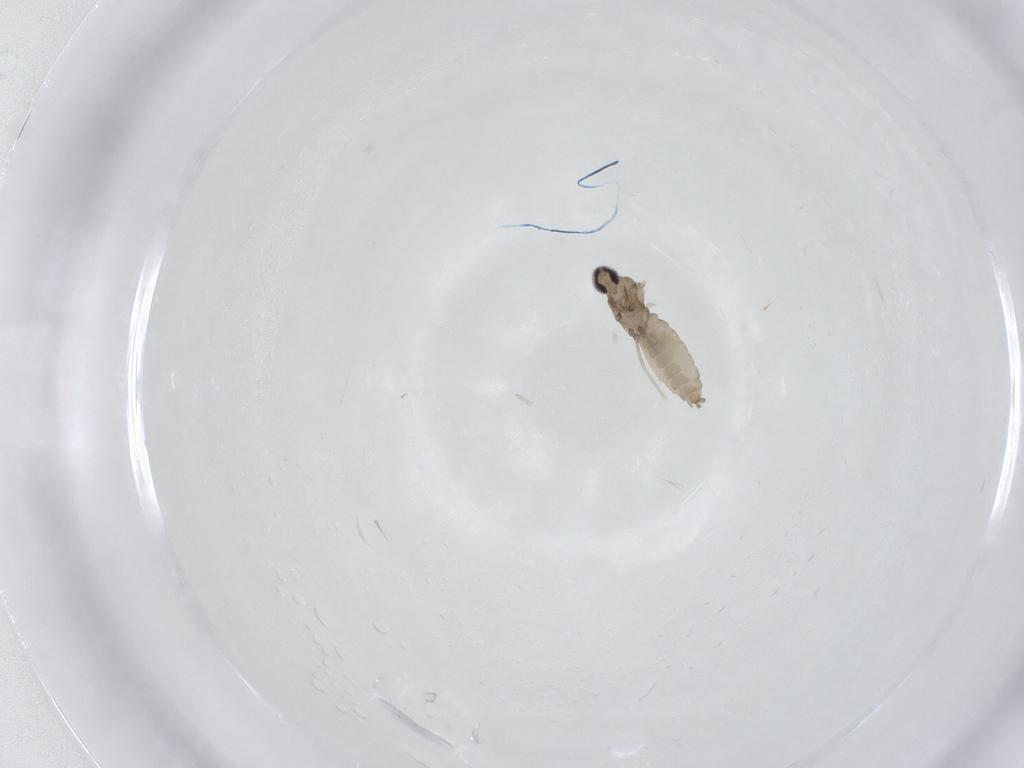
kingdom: Animalia
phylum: Arthropoda
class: Insecta
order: Diptera
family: Cecidomyiidae
